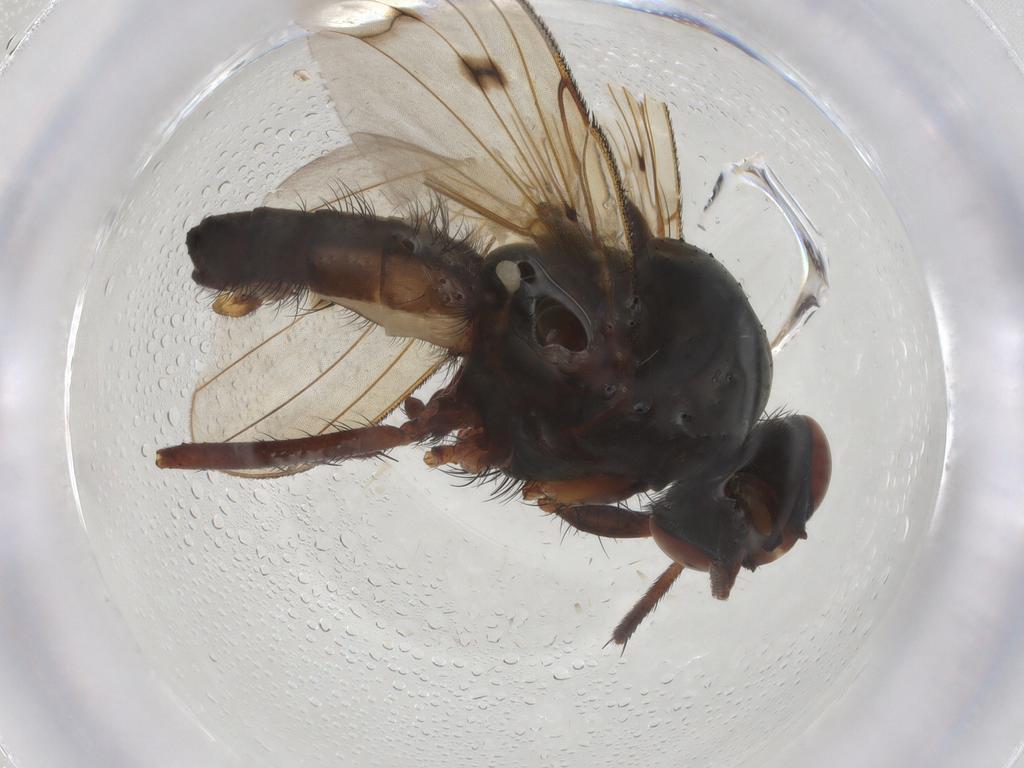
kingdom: Animalia
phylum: Arthropoda
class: Insecta
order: Diptera
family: Anthomyiidae
